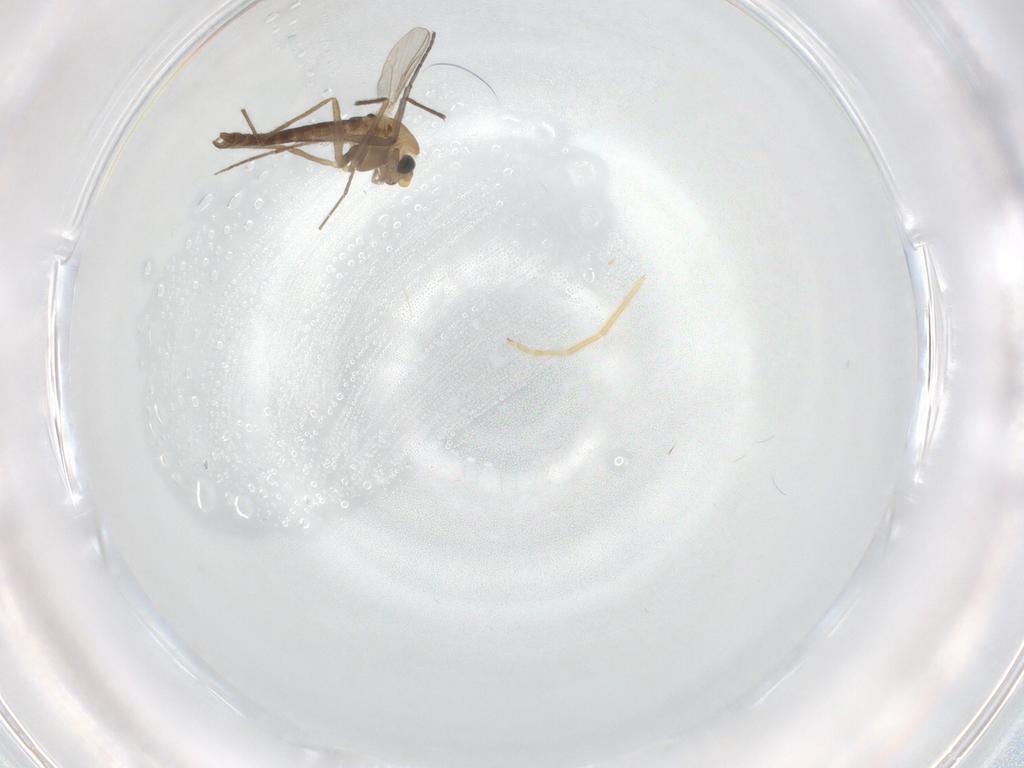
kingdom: Animalia
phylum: Arthropoda
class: Insecta
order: Diptera
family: Chironomidae
